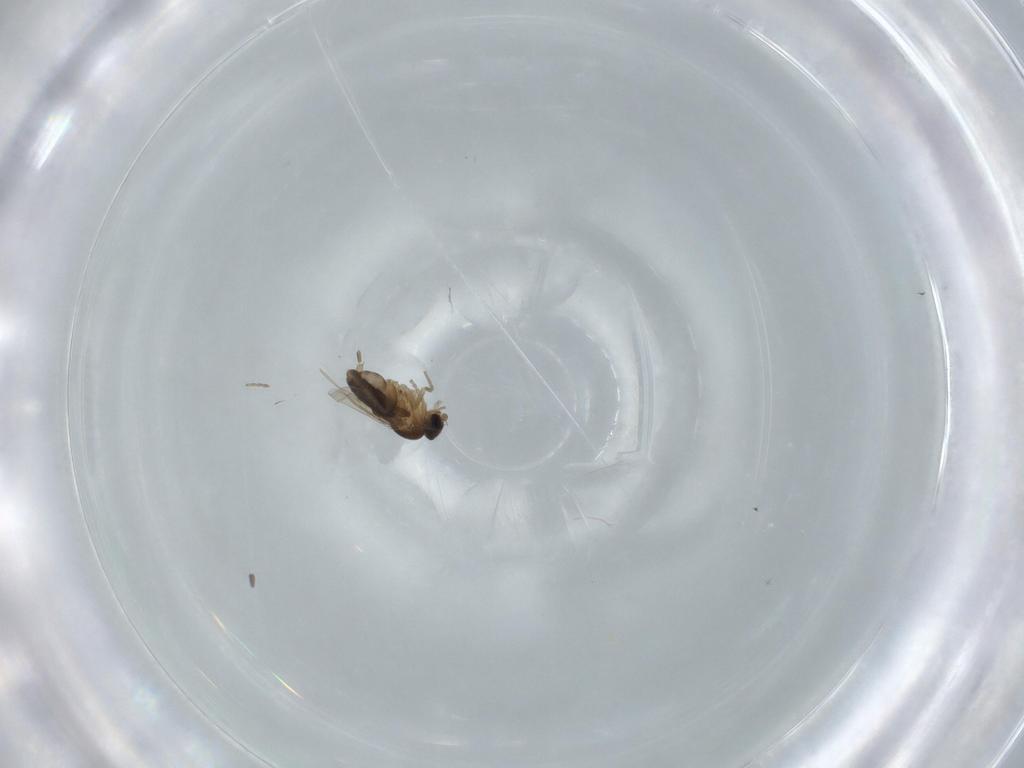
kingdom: Animalia
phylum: Arthropoda
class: Insecta
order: Diptera
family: Phoridae
